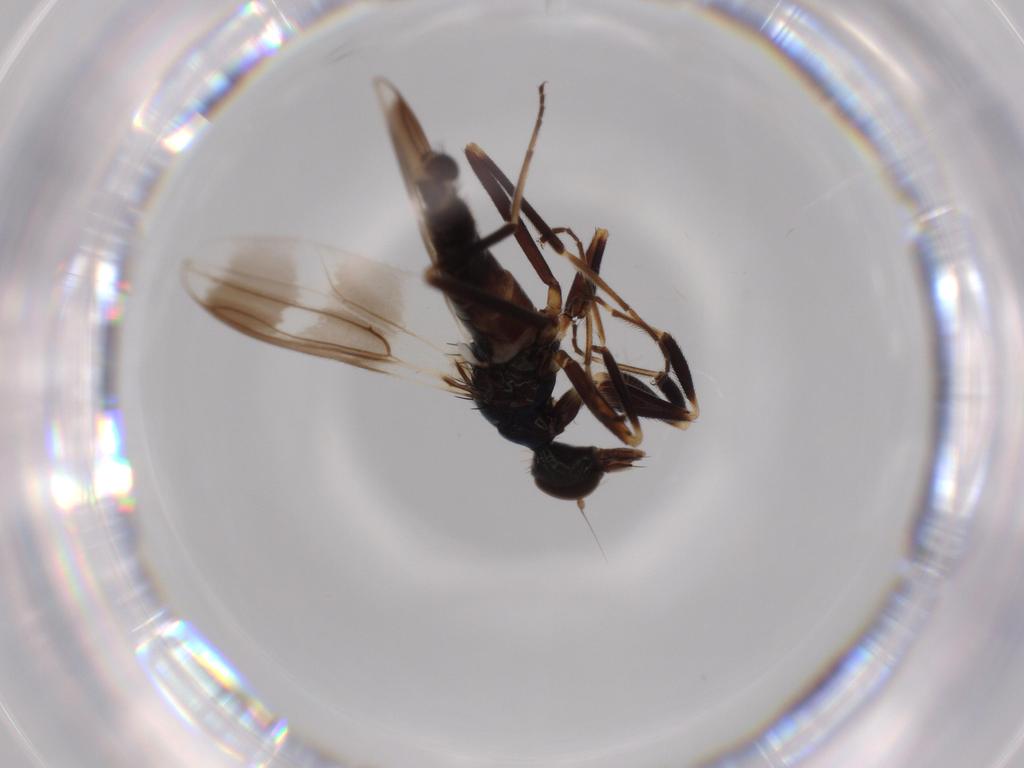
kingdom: Animalia
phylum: Arthropoda
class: Insecta
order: Diptera
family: Hybotidae
